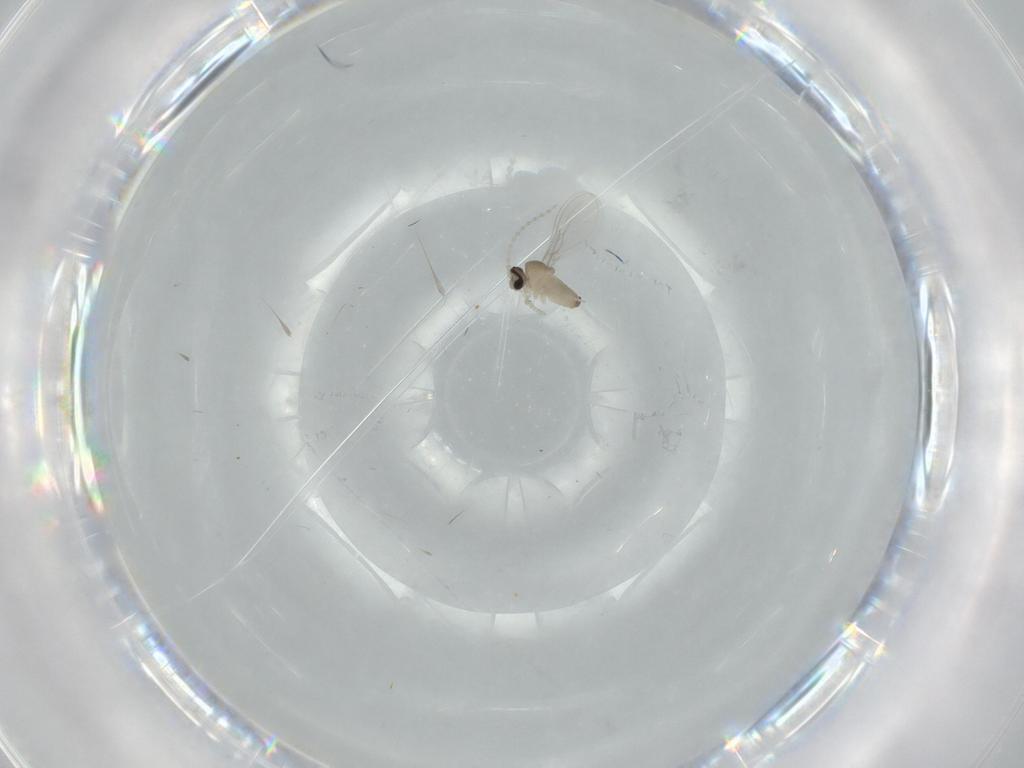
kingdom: Animalia
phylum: Arthropoda
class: Insecta
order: Diptera
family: Cecidomyiidae
